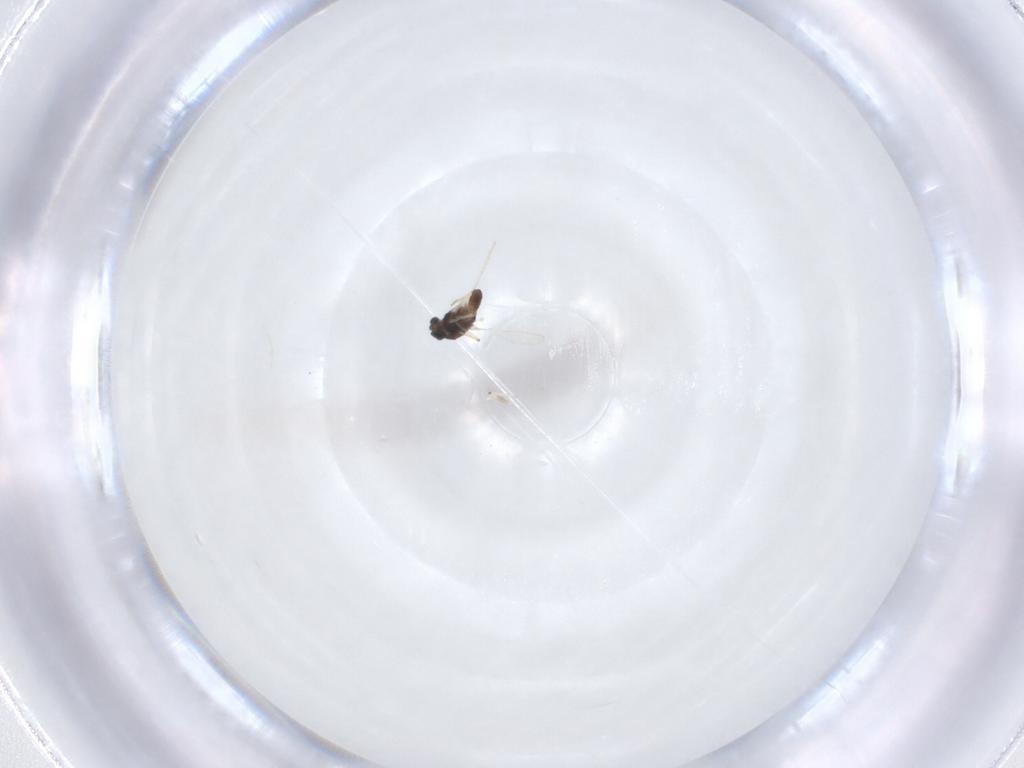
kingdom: Animalia
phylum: Arthropoda
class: Insecta
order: Diptera
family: Chironomidae
